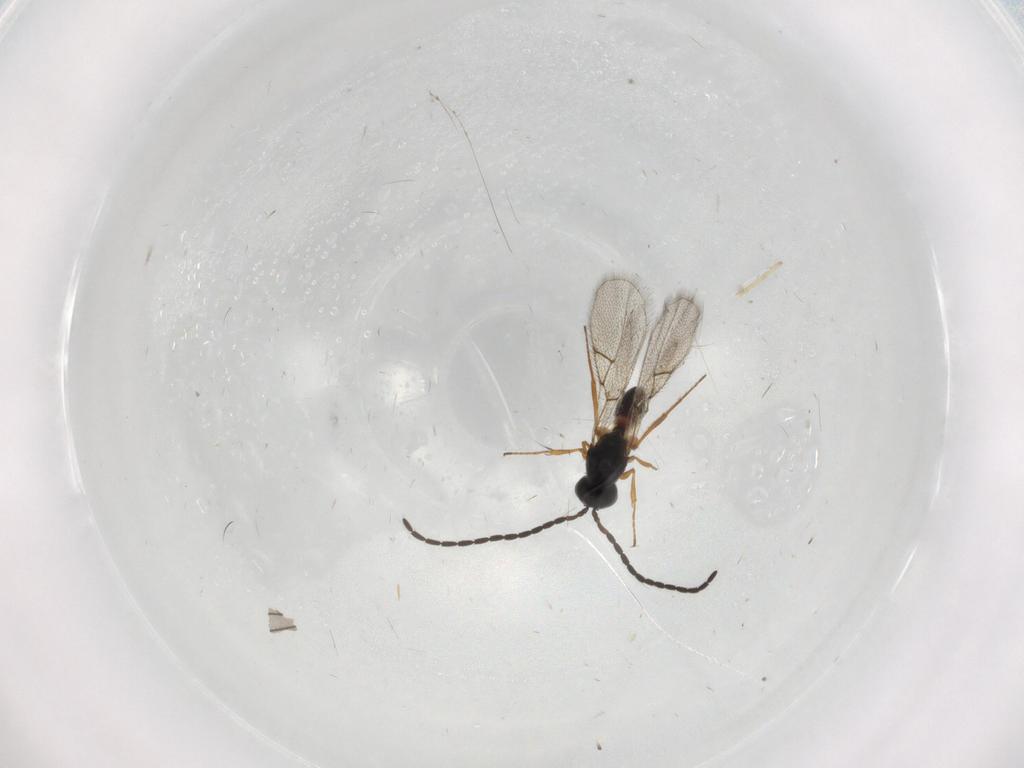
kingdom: Animalia
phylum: Arthropoda
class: Insecta
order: Hymenoptera
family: Figitidae
